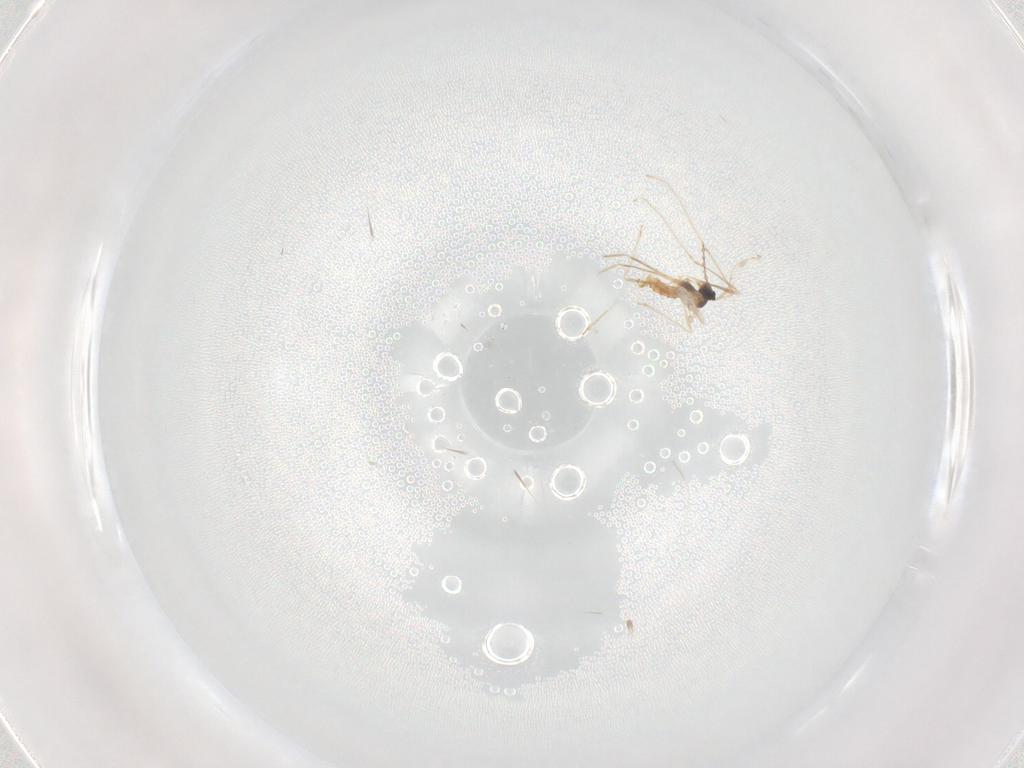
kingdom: Animalia
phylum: Arthropoda
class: Insecta
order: Diptera
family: Cecidomyiidae
